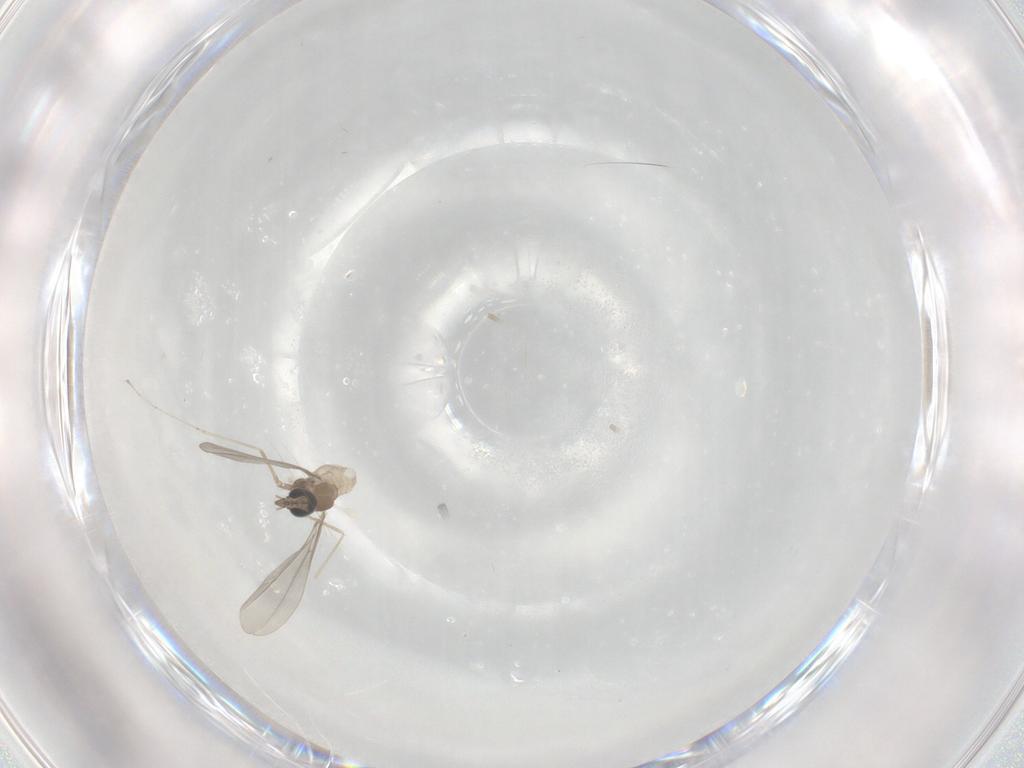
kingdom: Animalia
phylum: Arthropoda
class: Insecta
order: Diptera
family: Cecidomyiidae
